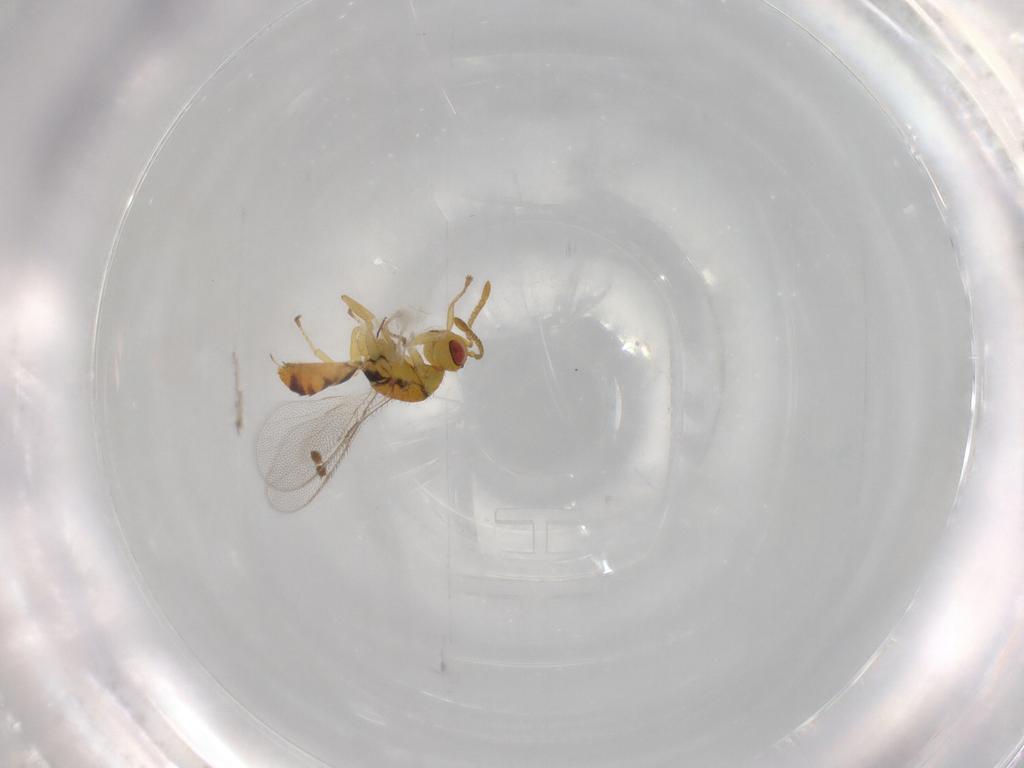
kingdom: Animalia
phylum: Arthropoda
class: Insecta
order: Hymenoptera
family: Megastigmidae
